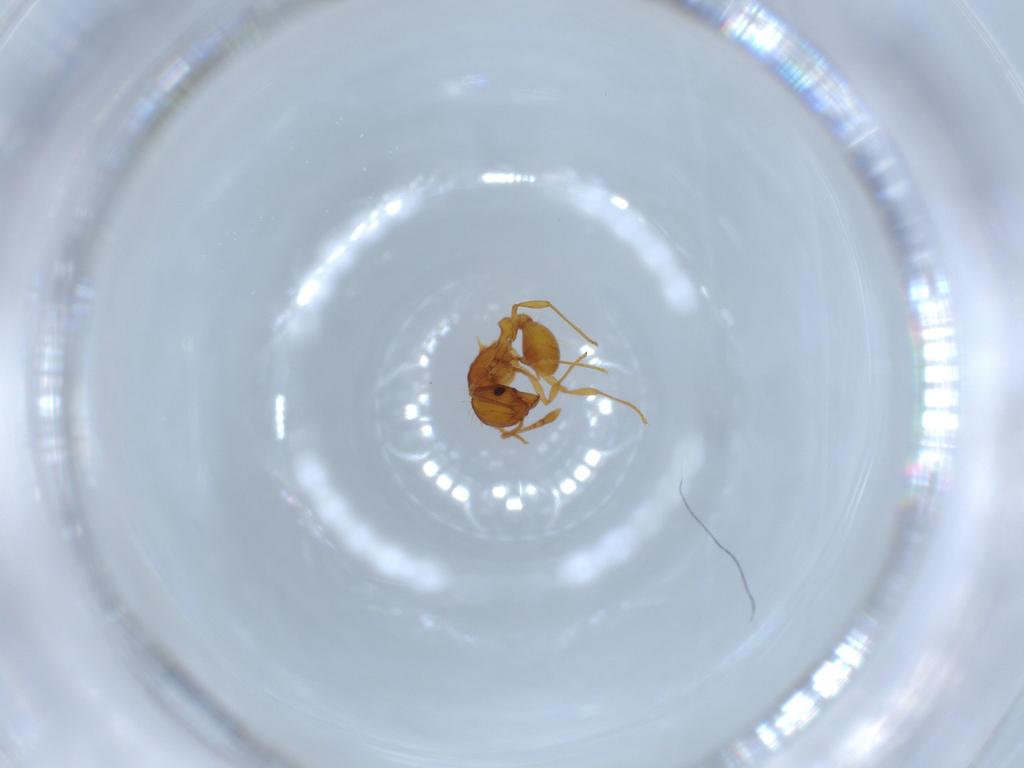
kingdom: Animalia
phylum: Arthropoda
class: Insecta
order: Hymenoptera
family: Formicidae
